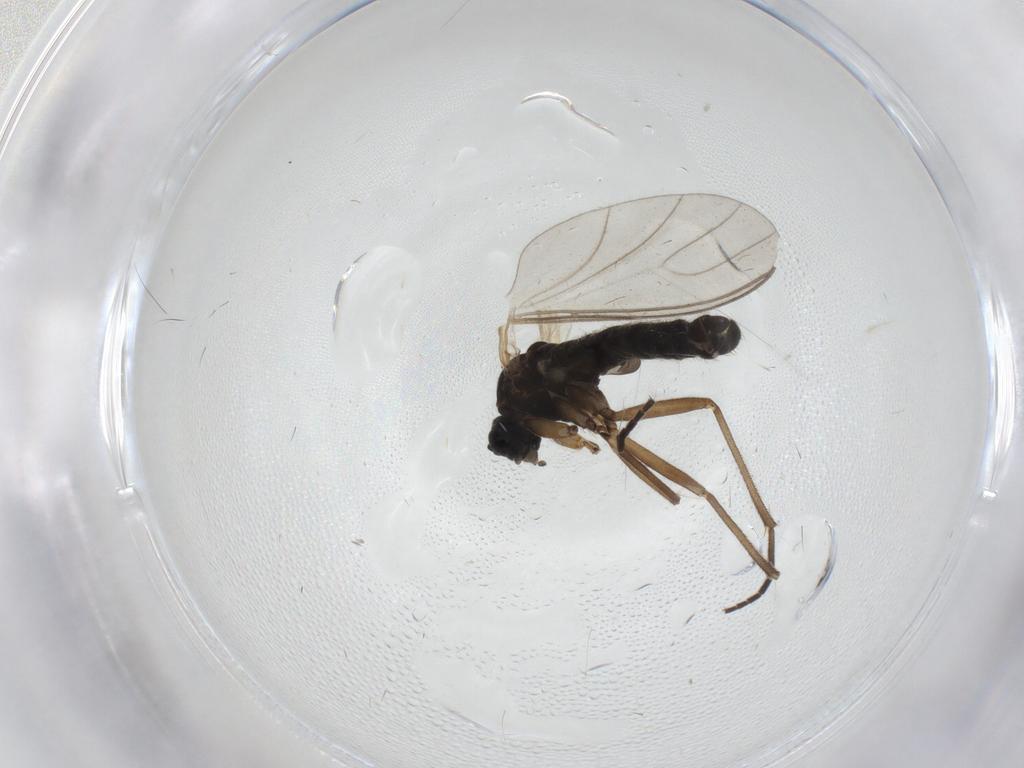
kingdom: Animalia
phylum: Arthropoda
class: Insecta
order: Diptera
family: Sciaridae
